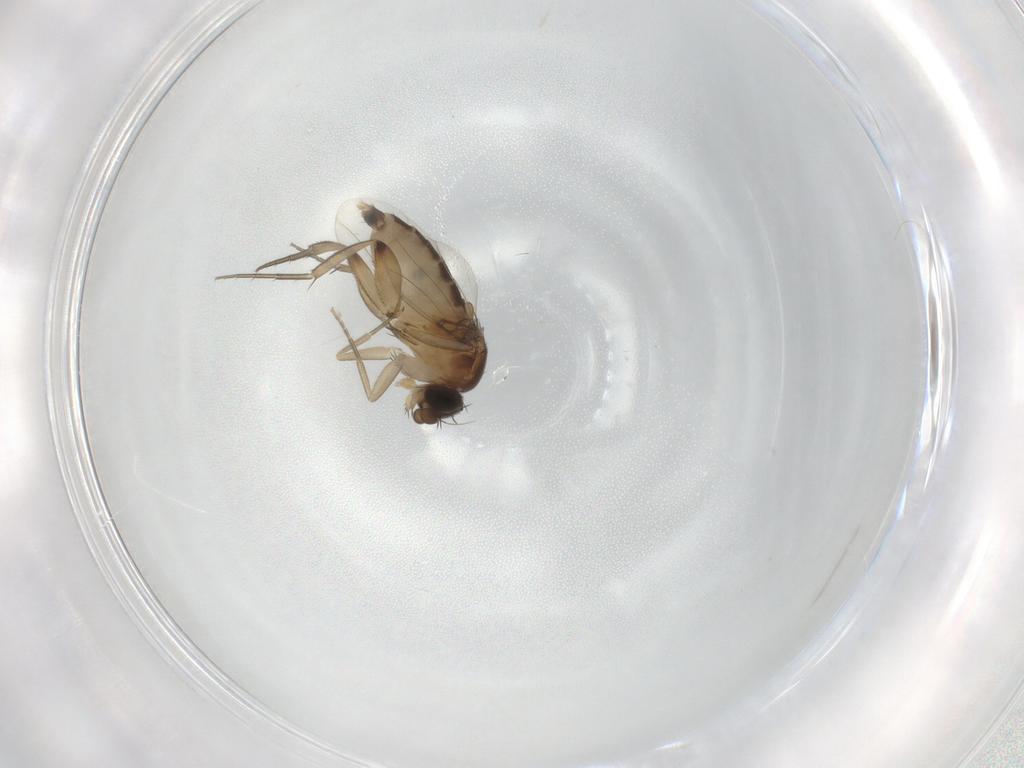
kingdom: Animalia
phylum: Arthropoda
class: Insecta
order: Diptera
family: Phoridae
